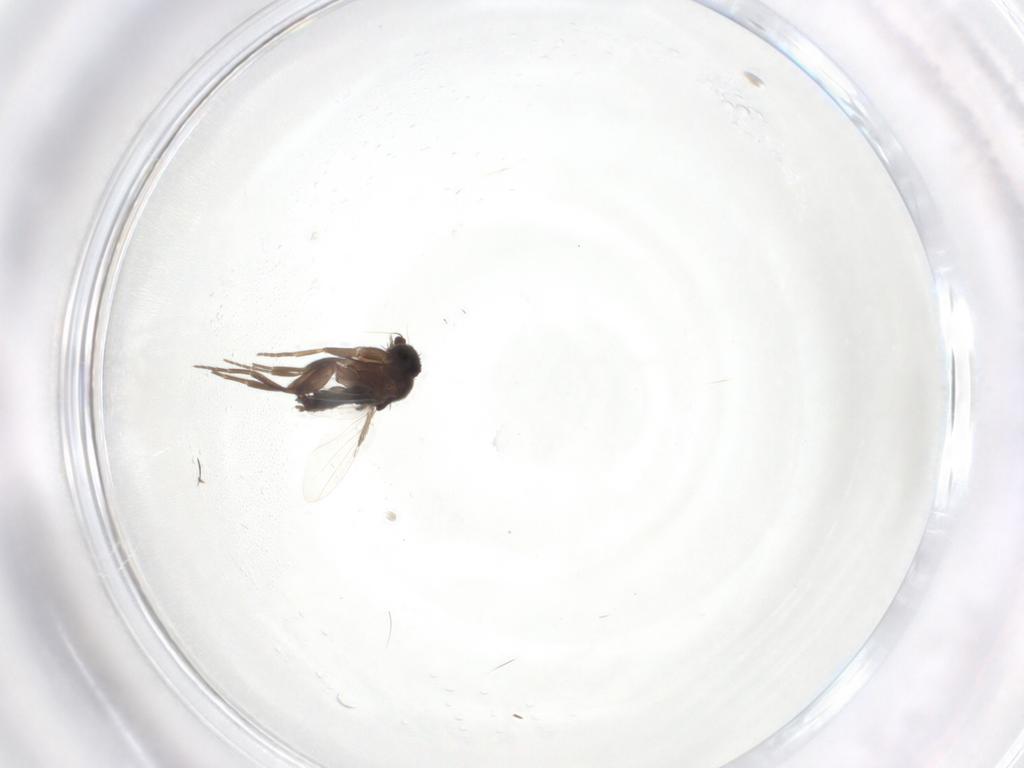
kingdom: Animalia
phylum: Arthropoda
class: Insecta
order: Diptera
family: Phoridae
